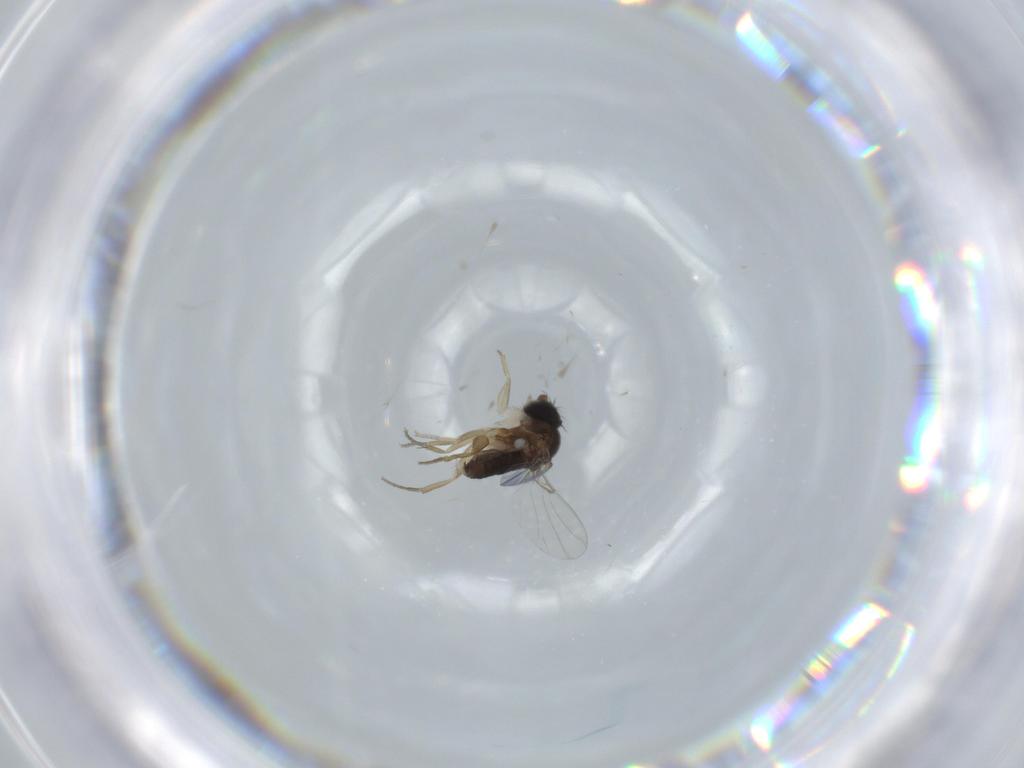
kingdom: Animalia
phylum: Arthropoda
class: Insecta
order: Diptera
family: Phoridae
